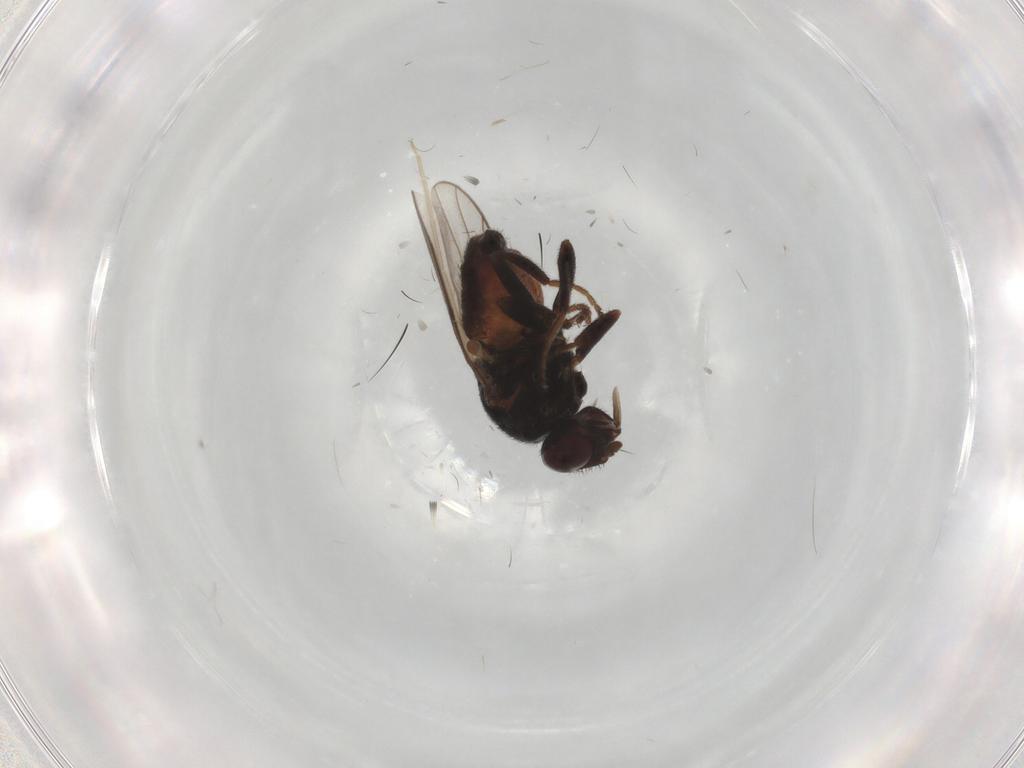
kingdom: Animalia
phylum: Arthropoda
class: Insecta
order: Diptera
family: Chloropidae
